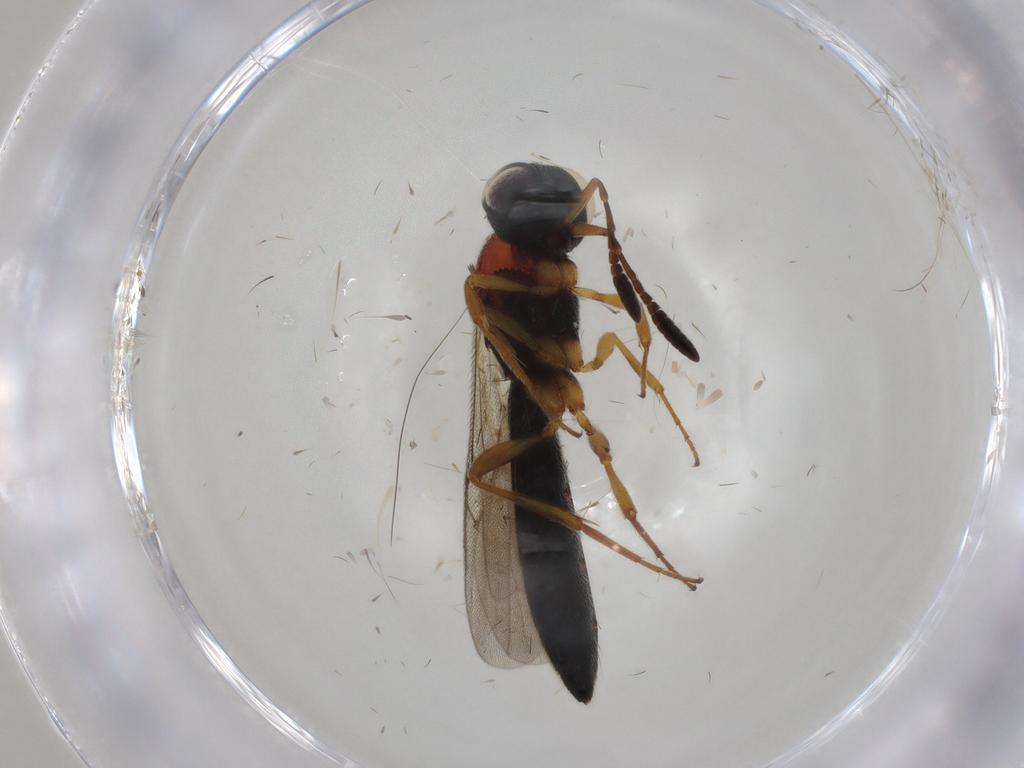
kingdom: Animalia
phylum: Arthropoda
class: Insecta
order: Hymenoptera
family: Scelionidae
